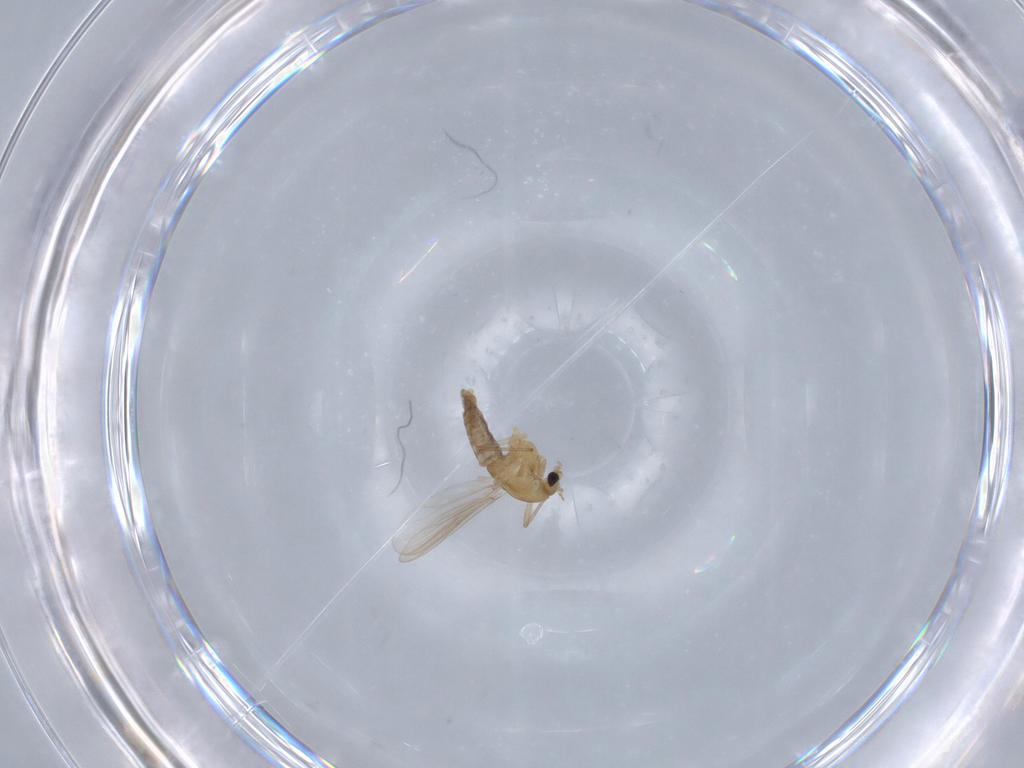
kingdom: Animalia
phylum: Arthropoda
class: Insecta
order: Diptera
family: Chironomidae
